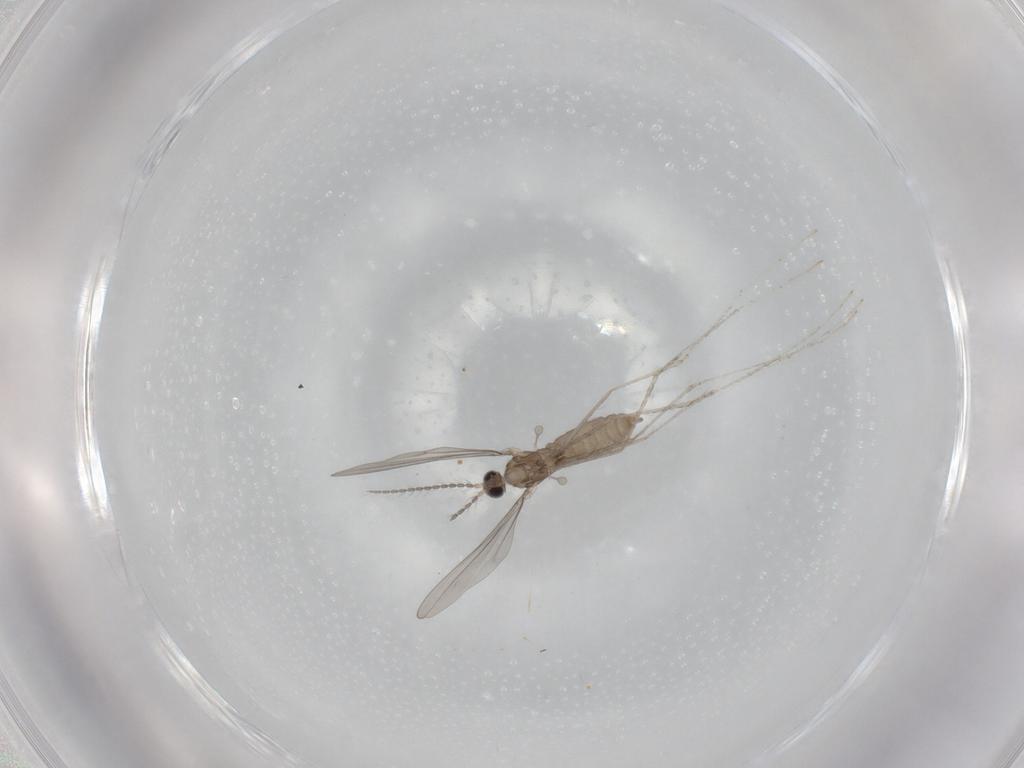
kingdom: Animalia
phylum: Arthropoda
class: Insecta
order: Diptera
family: Cecidomyiidae
